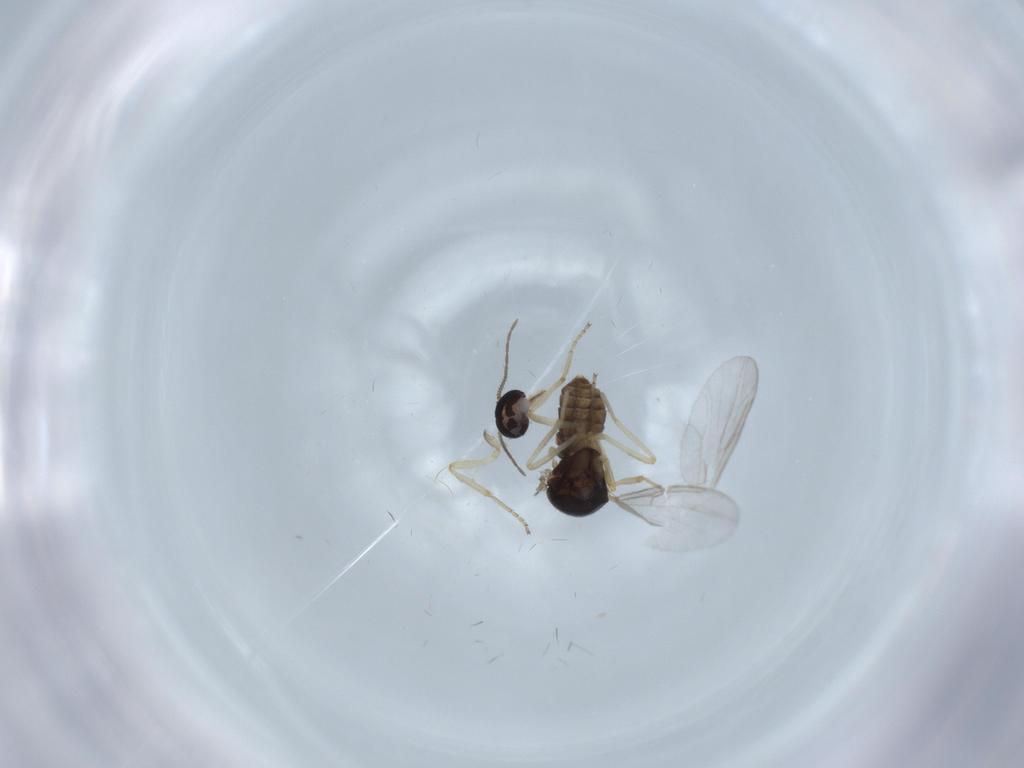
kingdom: Animalia
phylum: Arthropoda
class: Insecta
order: Diptera
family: Ceratopogonidae
